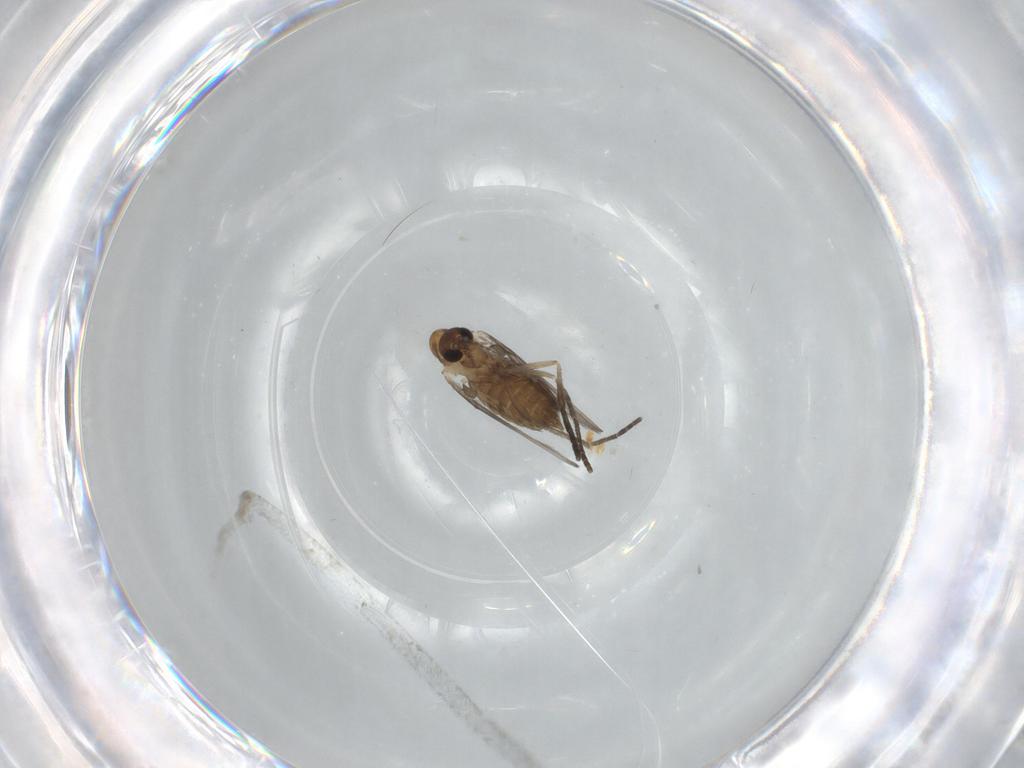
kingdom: Animalia
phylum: Arthropoda
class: Insecta
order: Diptera
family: Psychodidae
